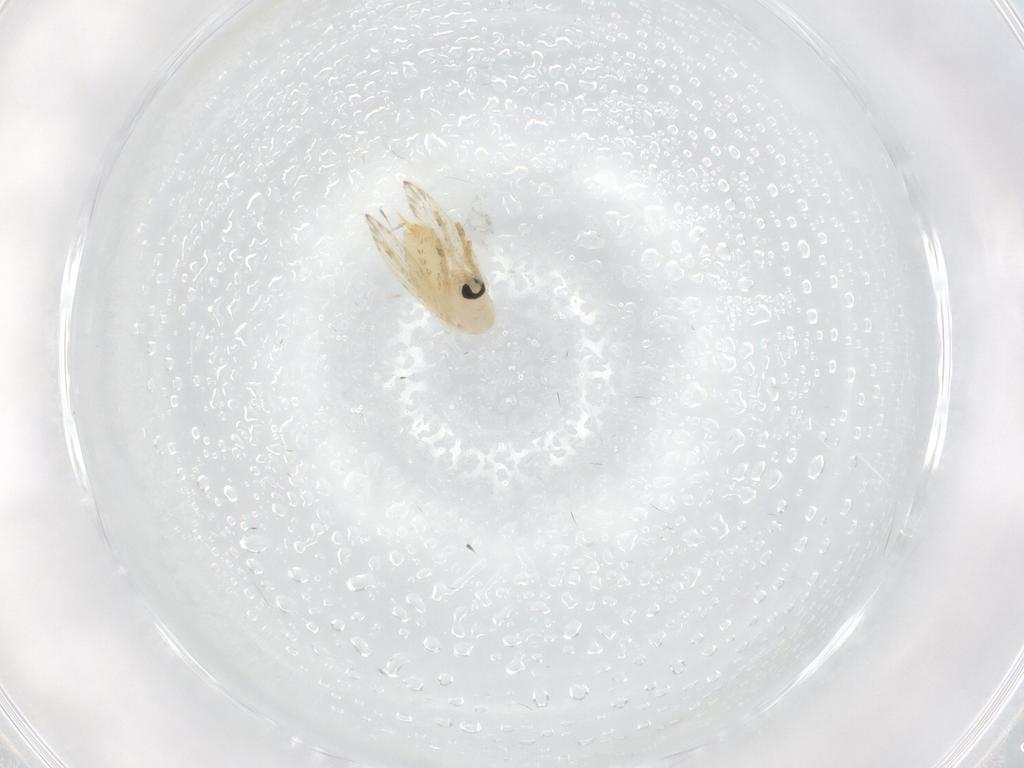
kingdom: Animalia
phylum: Arthropoda
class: Insecta
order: Diptera
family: Psychodidae
